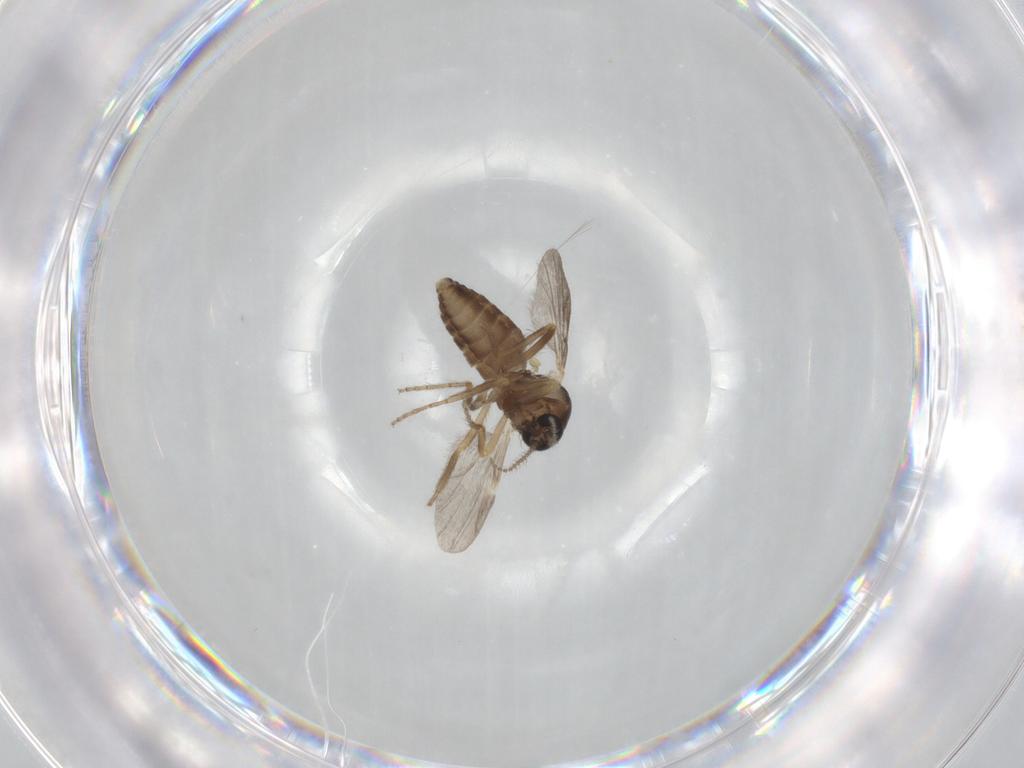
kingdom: Animalia
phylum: Arthropoda
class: Insecta
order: Diptera
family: Ceratopogonidae
